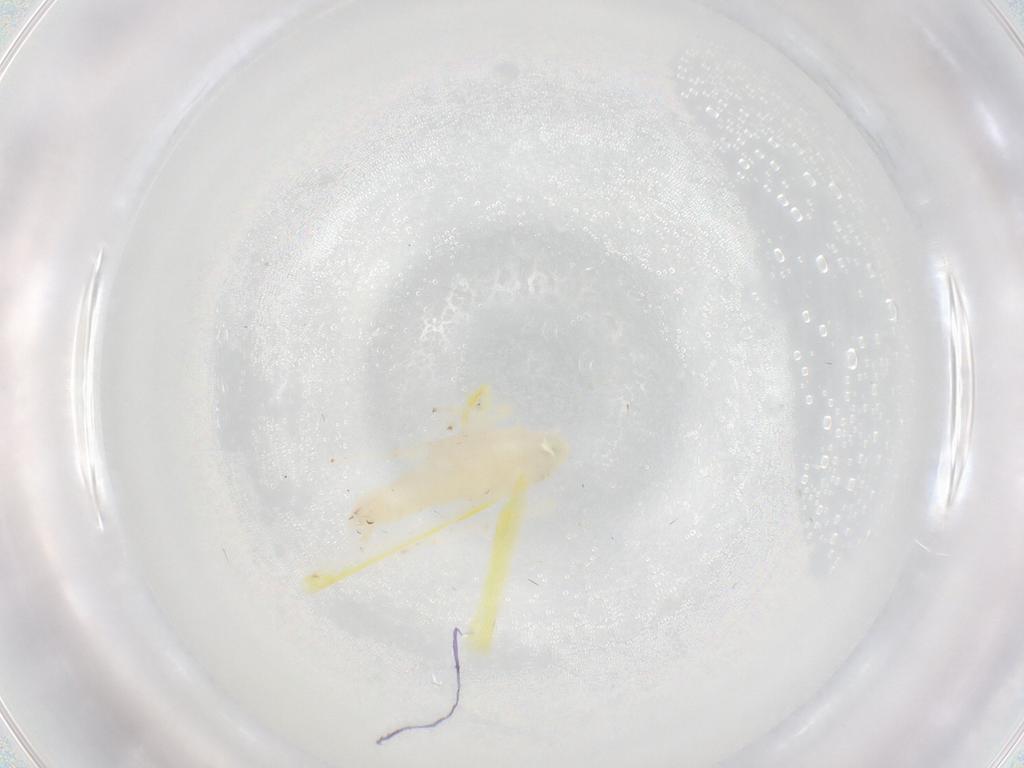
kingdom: Animalia
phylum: Arthropoda
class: Insecta
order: Hemiptera
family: Cicadellidae
